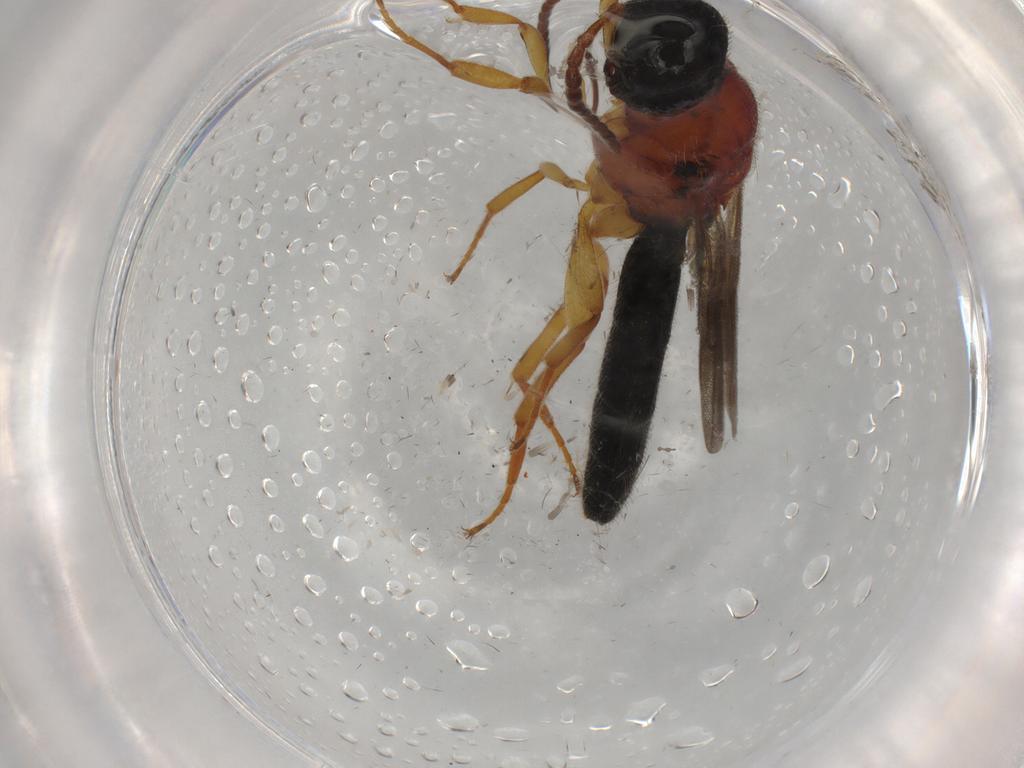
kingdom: Animalia
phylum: Arthropoda
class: Insecta
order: Hymenoptera
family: Scelionidae
